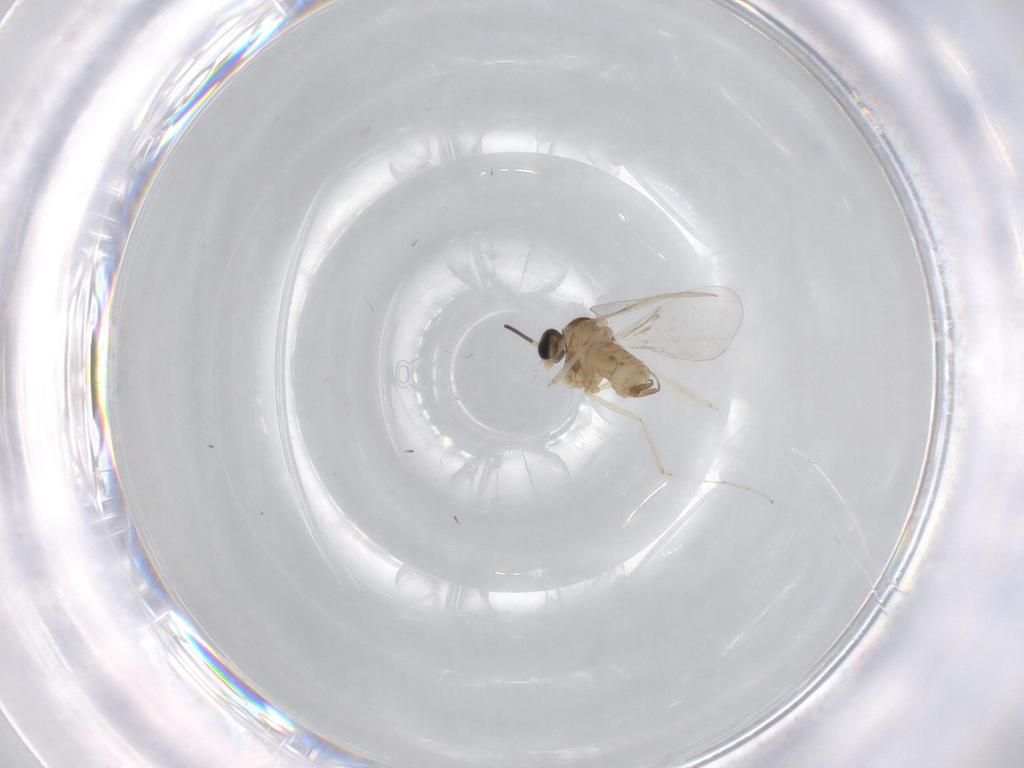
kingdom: Animalia
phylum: Arthropoda
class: Insecta
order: Diptera
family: Cecidomyiidae
